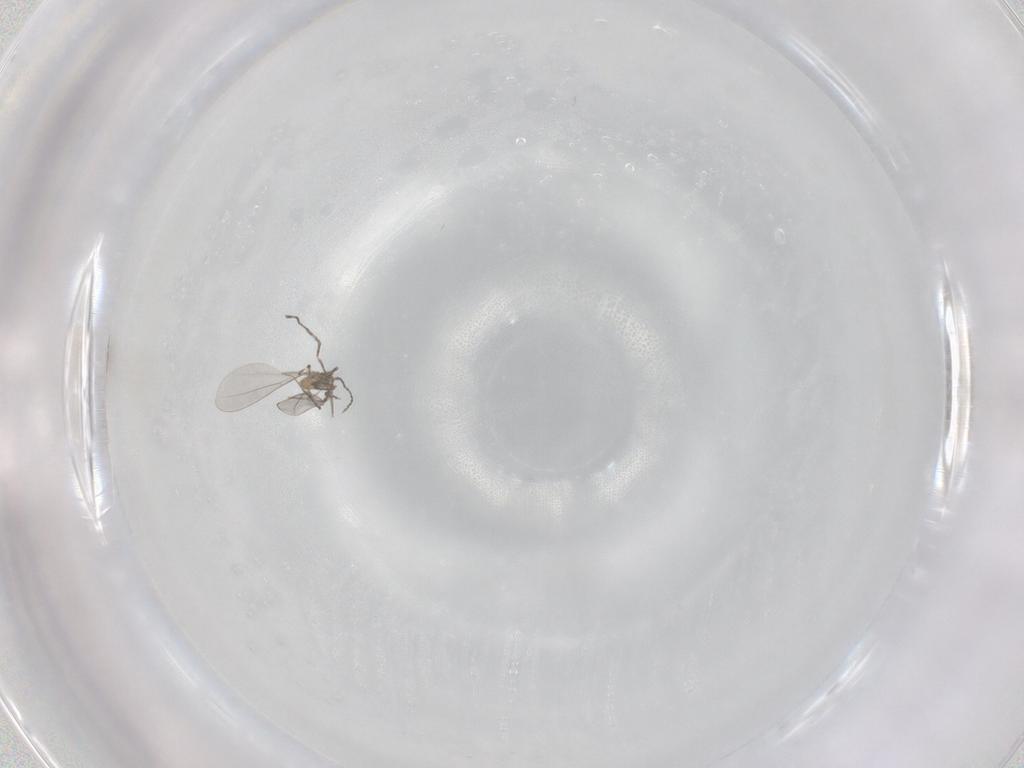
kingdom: Animalia
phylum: Arthropoda
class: Insecta
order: Diptera
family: Cecidomyiidae
